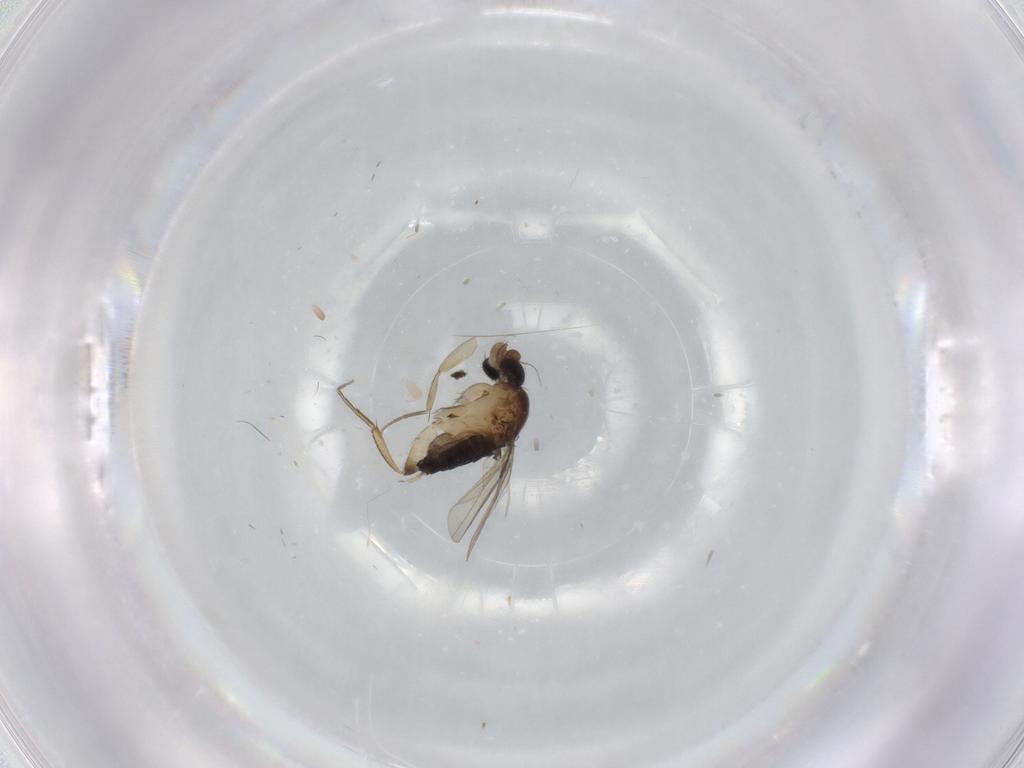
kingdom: Animalia
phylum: Arthropoda
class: Insecta
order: Diptera
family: Phoridae
